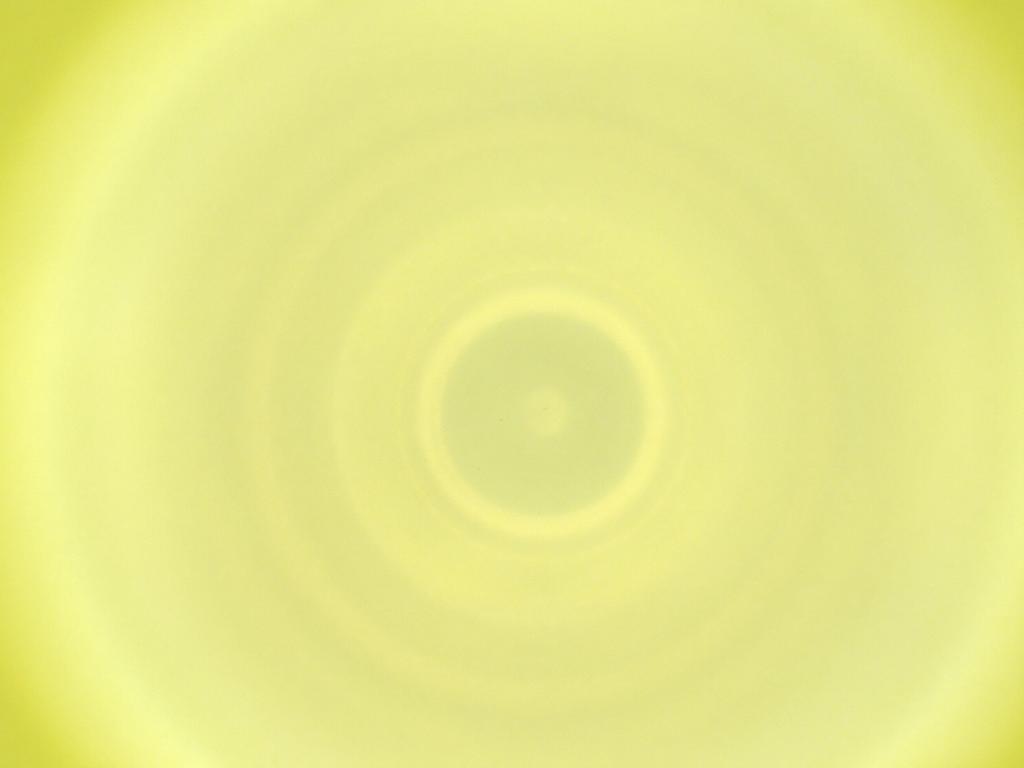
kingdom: Animalia
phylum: Arthropoda
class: Insecta
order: Diptera
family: Cecidomyiidae
